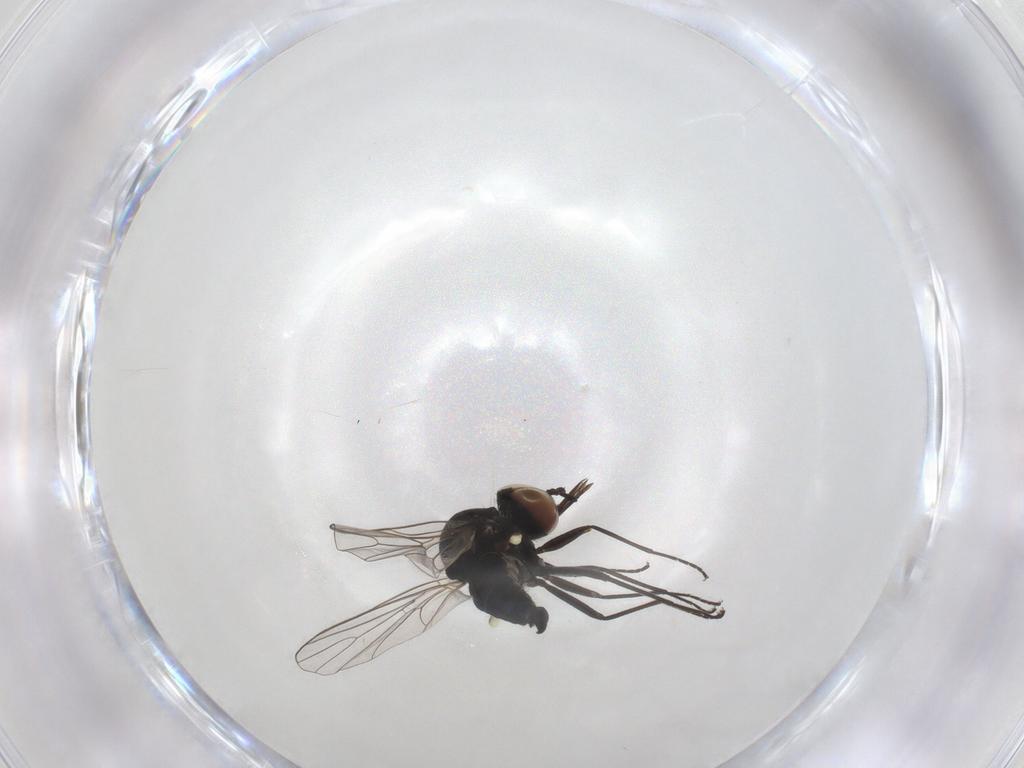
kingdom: Animalia
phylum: Arthropoda
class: Insecta
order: Diptera
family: Bombyliidae
